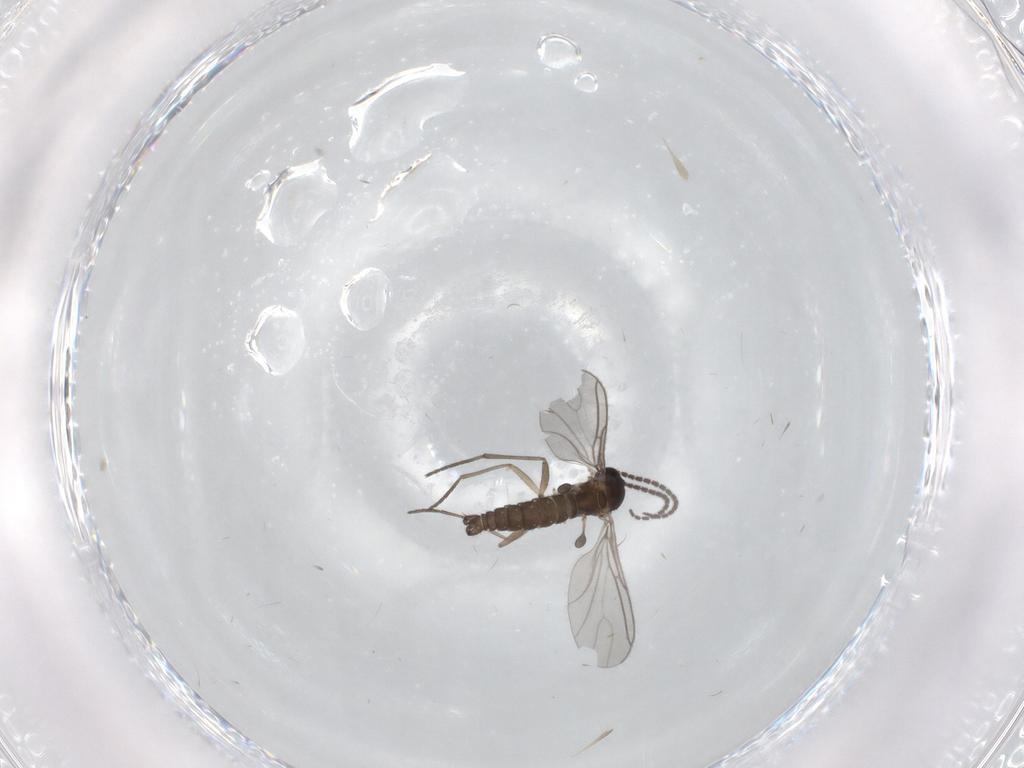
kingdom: Animalia
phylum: Arthropoda
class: Insecta
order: Diptera
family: Sciaridae
